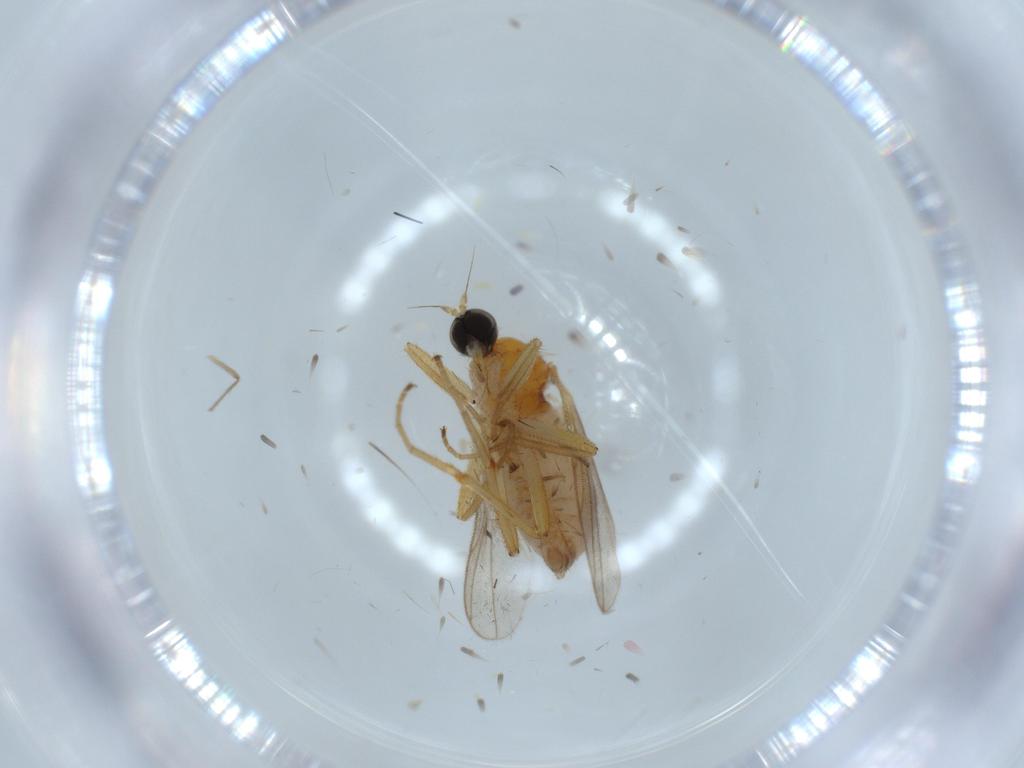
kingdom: Animalia
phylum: Arthropoda
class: Insecta
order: Diptera
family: Hybotidae
